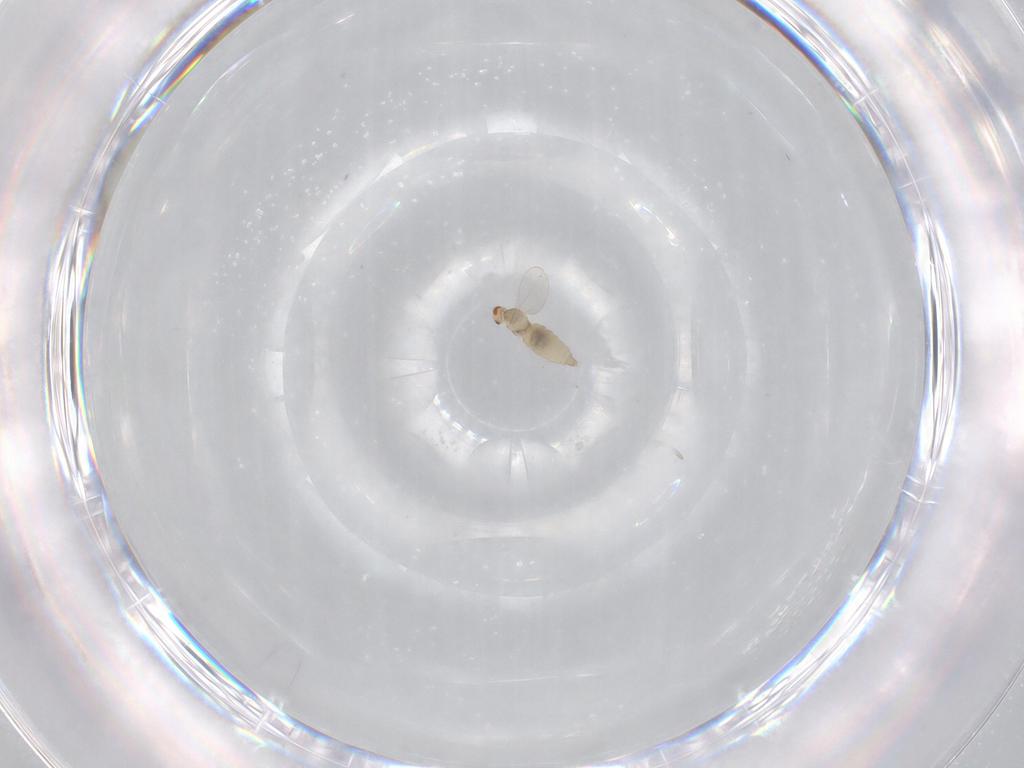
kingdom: Animalia
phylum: Arthropoda
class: Insecta
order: Diptera
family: Cecidomyiidae
